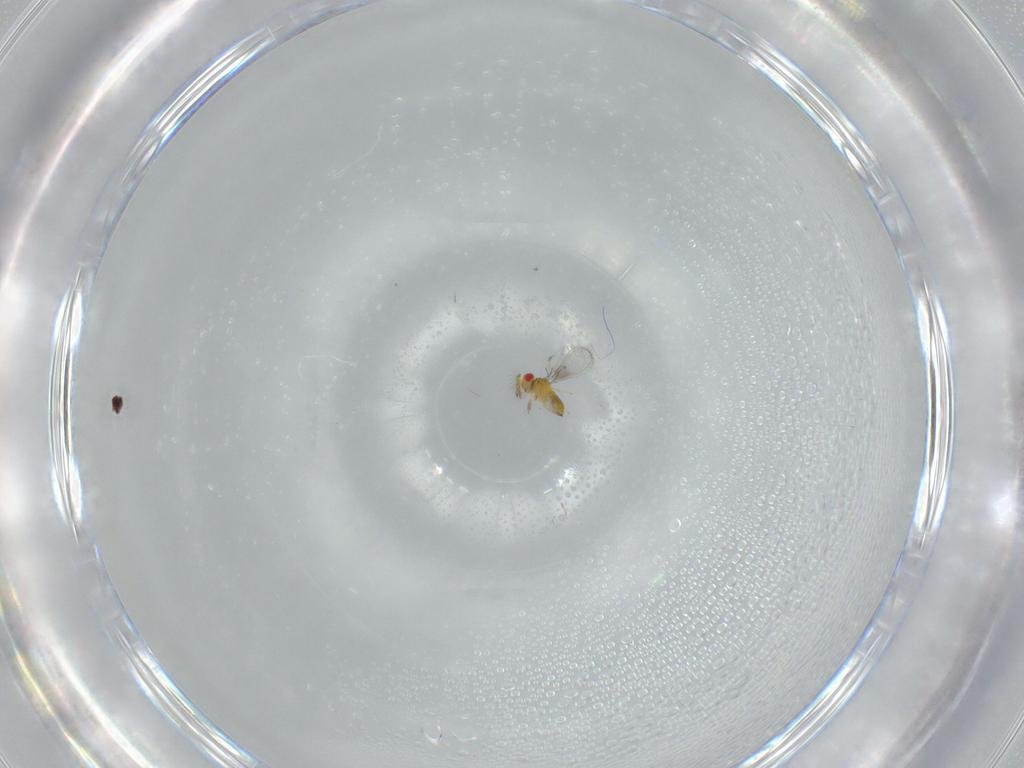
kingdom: Animalia
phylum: Arthropoda
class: Insecta
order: Hymenoptera
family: Trichogrammatidae
